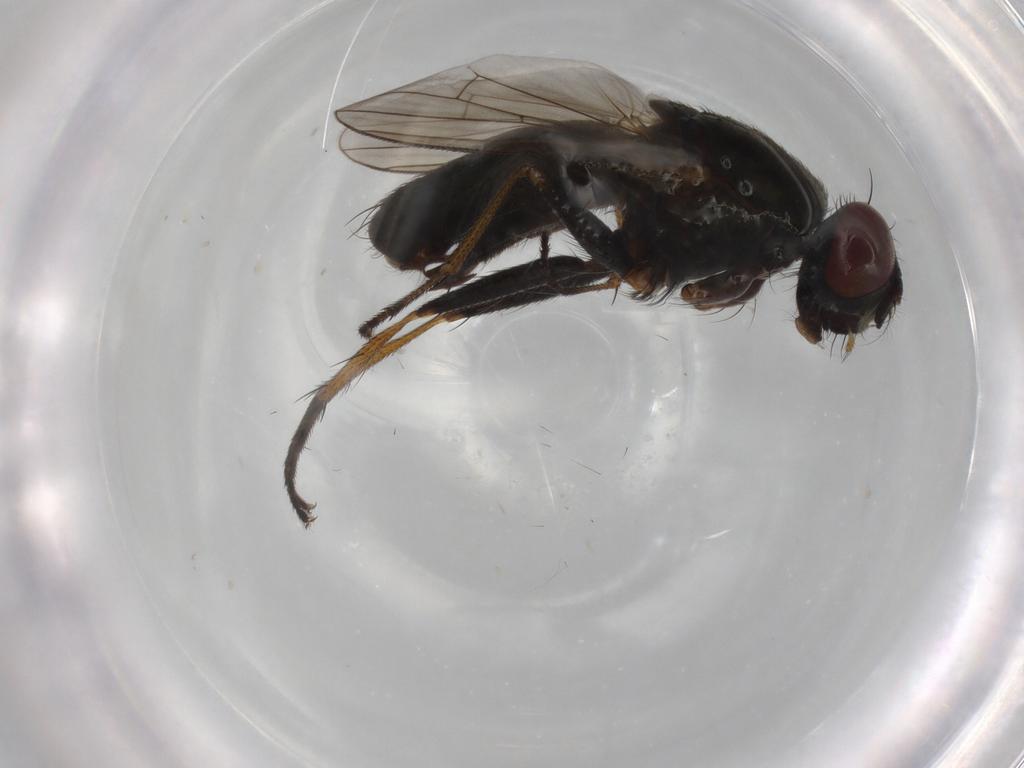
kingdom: Animalia
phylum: Arthropoda
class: Insecta
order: Diptera
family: Muscidae
